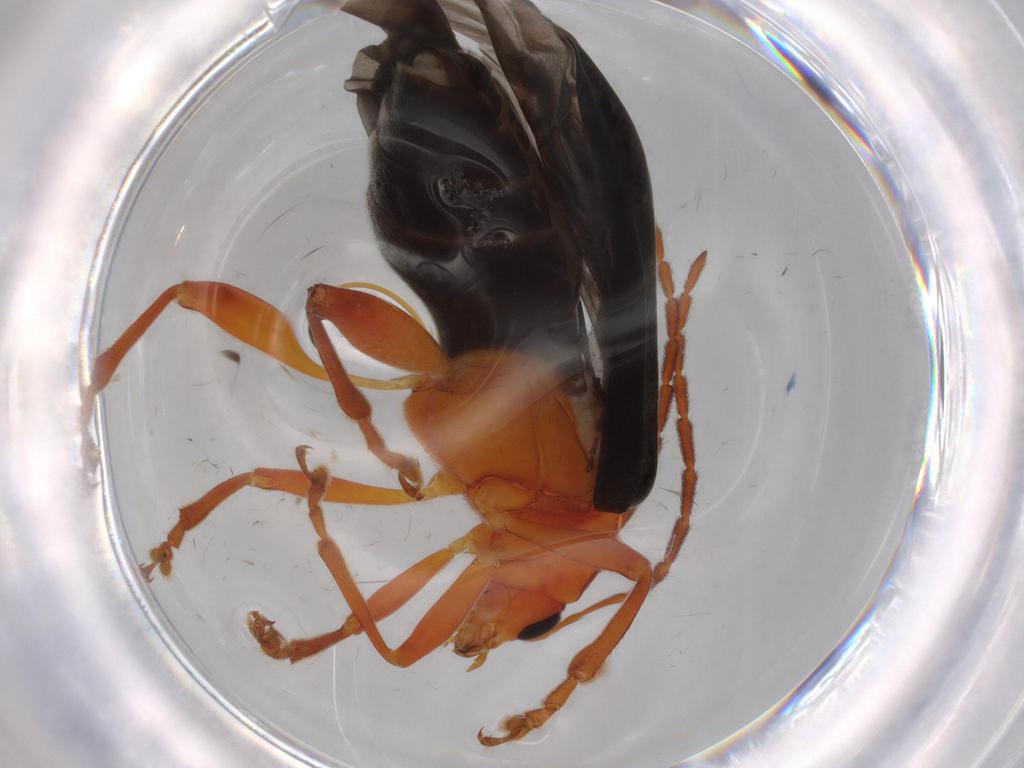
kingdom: Animalia
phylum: Arthropoda
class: Insecta
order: Coleoptera
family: Chrysomelidae
